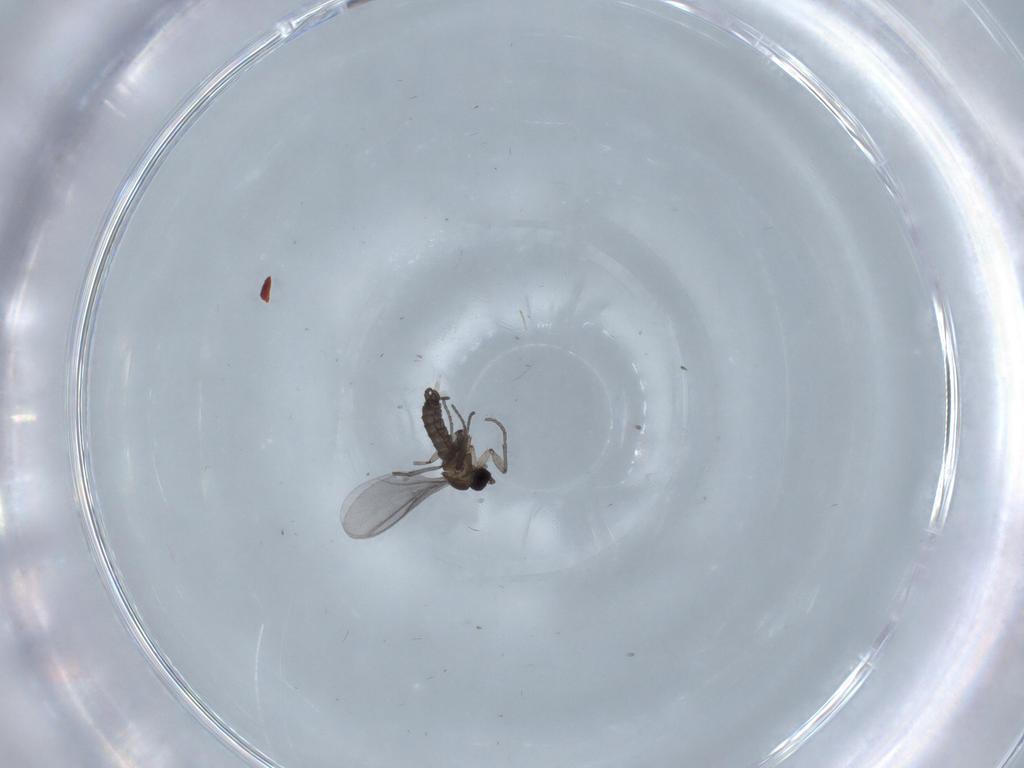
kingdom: Animalia
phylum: Arthropoda
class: Insecta
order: Diptera
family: Chironomidae
